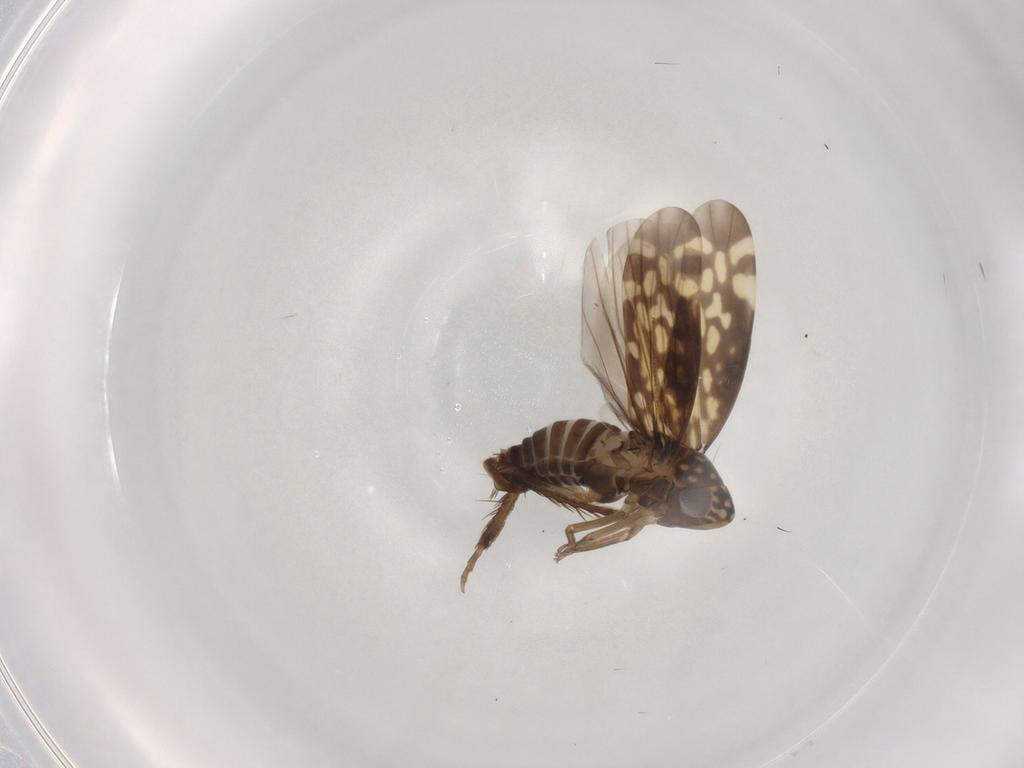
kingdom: Animalia
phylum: Arthropoda
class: Insecta
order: Hemiptera
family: Cicadellidae
